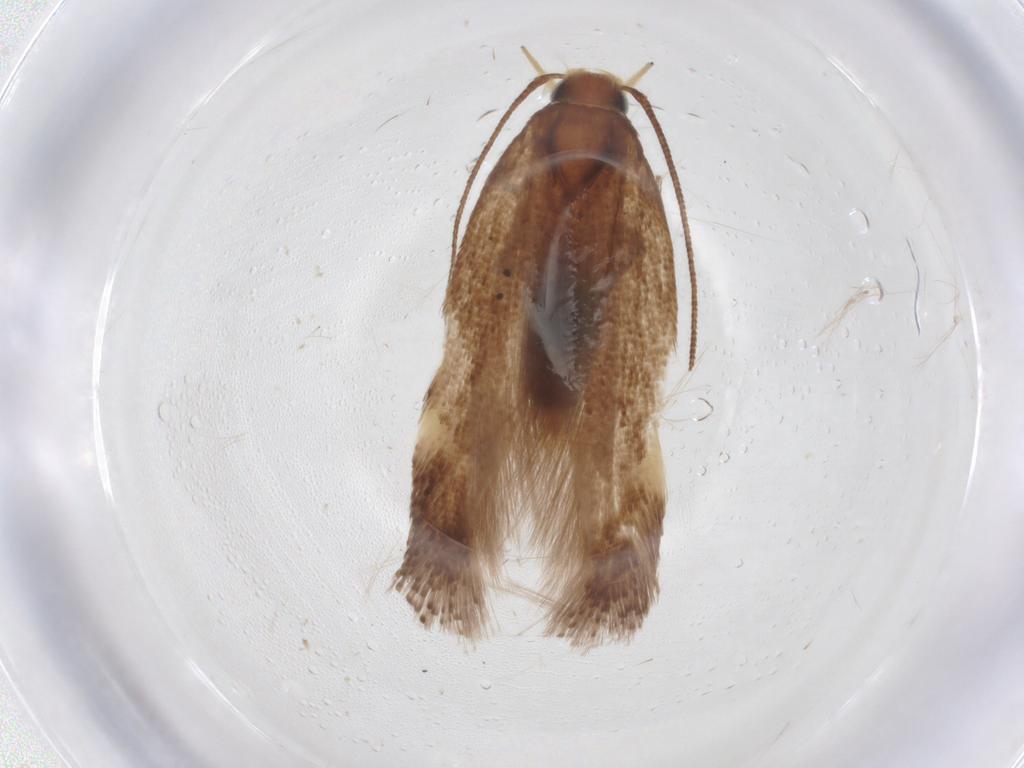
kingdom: Animalia
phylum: Arthropoda
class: Insecta
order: Lepidoptera
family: Gelechiidae
